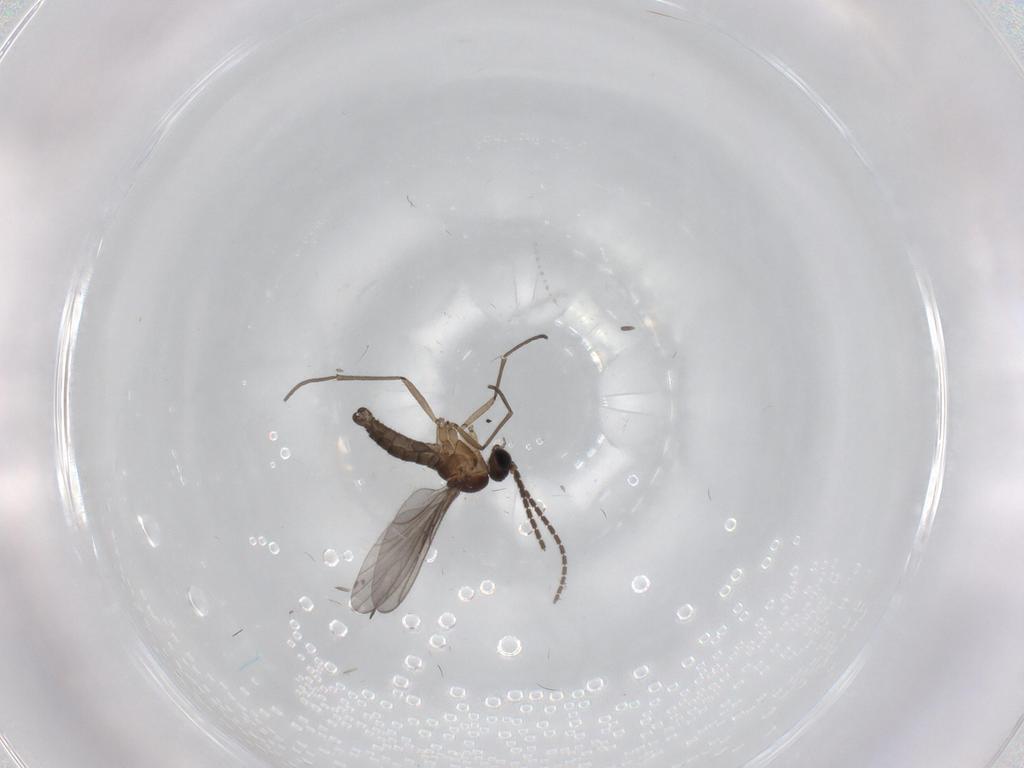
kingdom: Animalia
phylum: Arthropoda
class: Insecta
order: Diptera
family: Sciaridae
